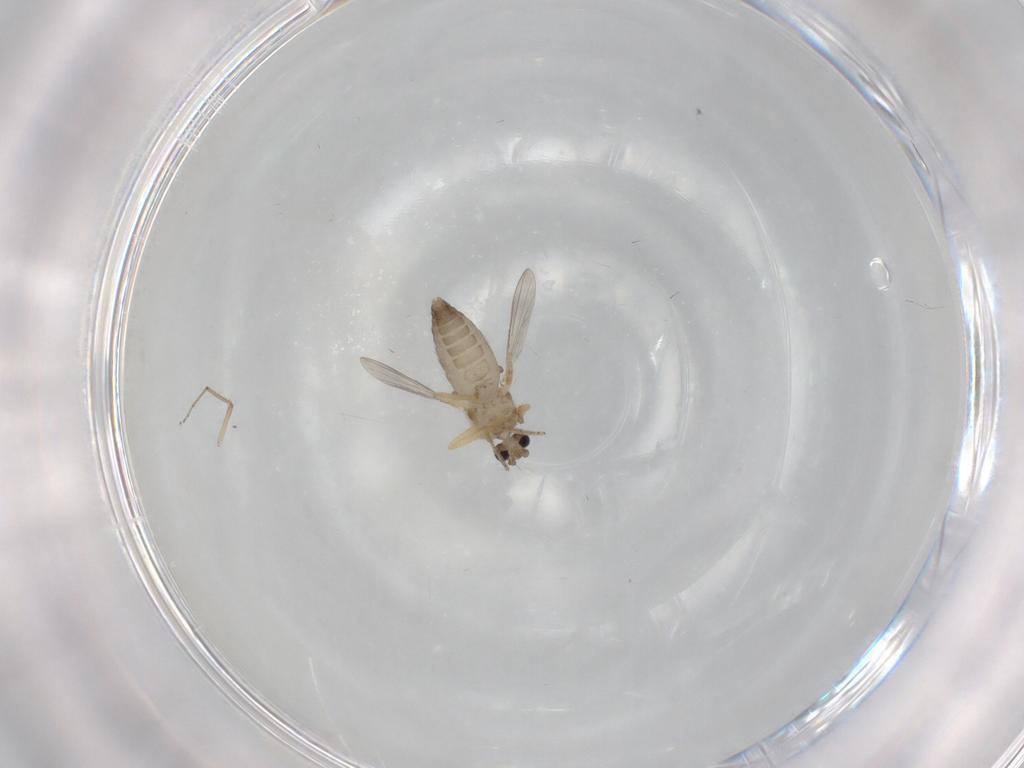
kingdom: Animalia
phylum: Arthropoda
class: Insecta
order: Diptera
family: Ceratopogonidae
